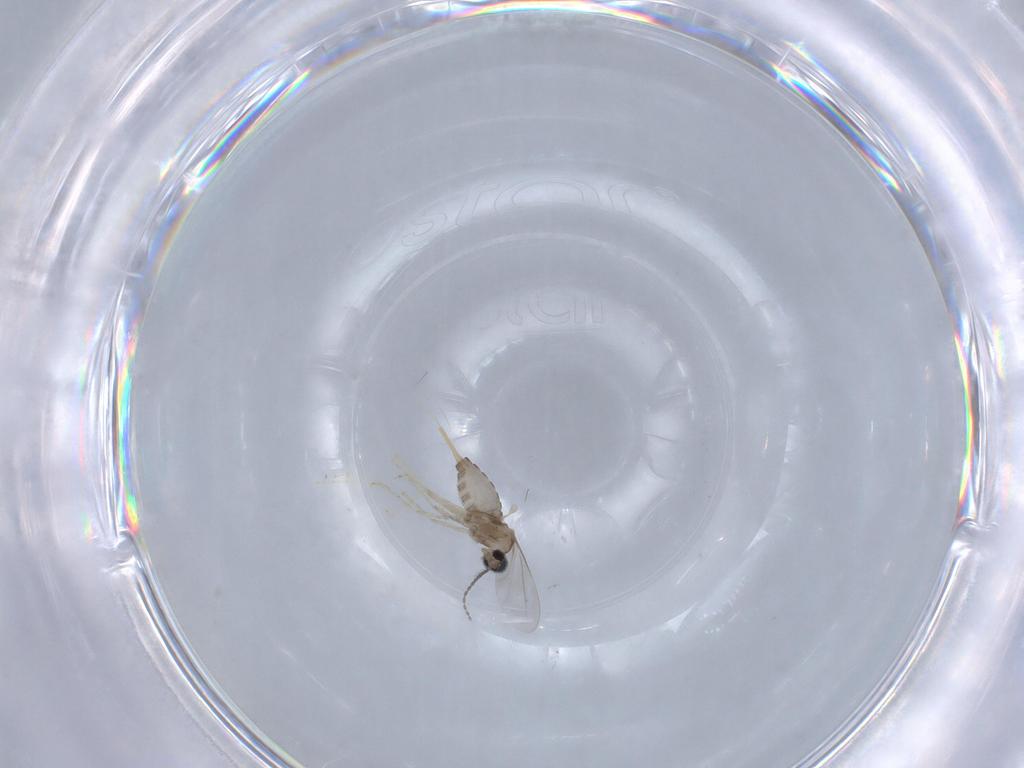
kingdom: Animalia
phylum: Arthropoda
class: Insecta
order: Diptera
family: Cecidomyiidae
